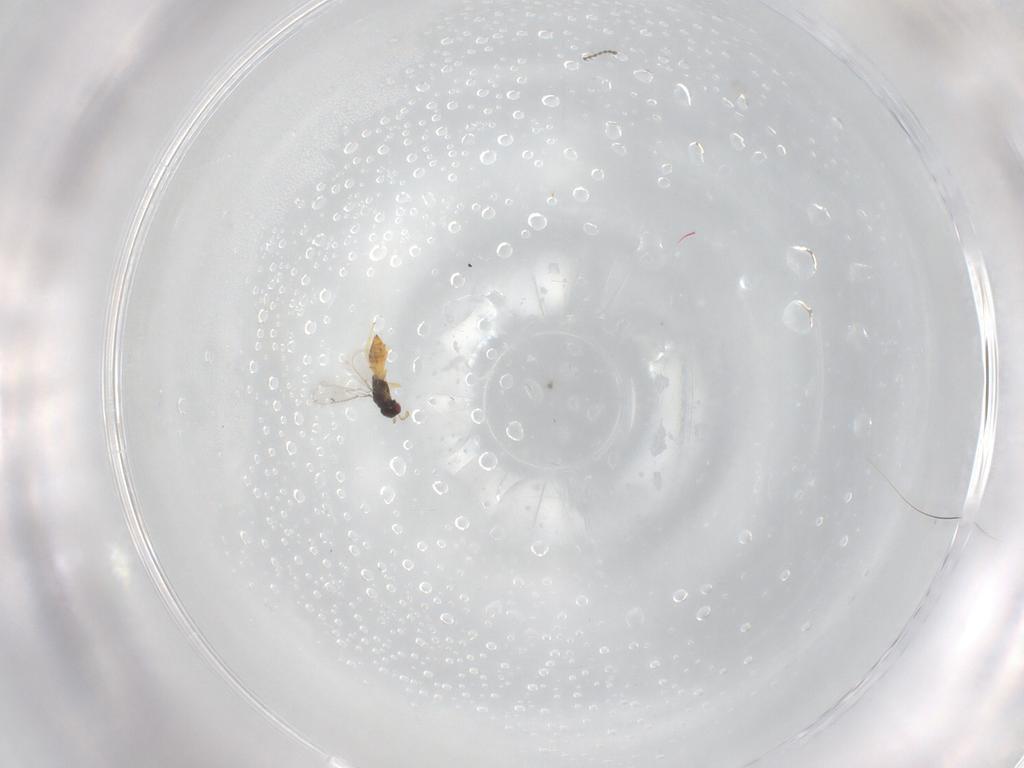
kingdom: Animalia
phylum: Arthropoda
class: Insecta
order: Hymenoptera
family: Eulophidae
